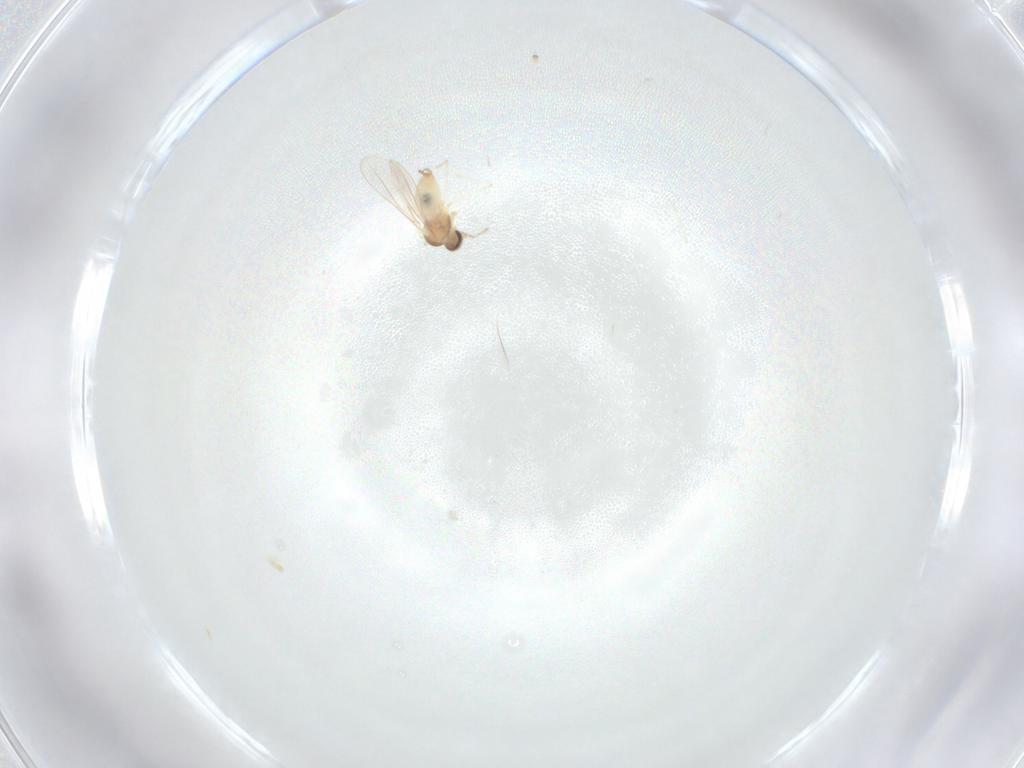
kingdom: Animalia
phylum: Arthropoda
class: Insecta
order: Diptera
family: Cecidomyiidae
